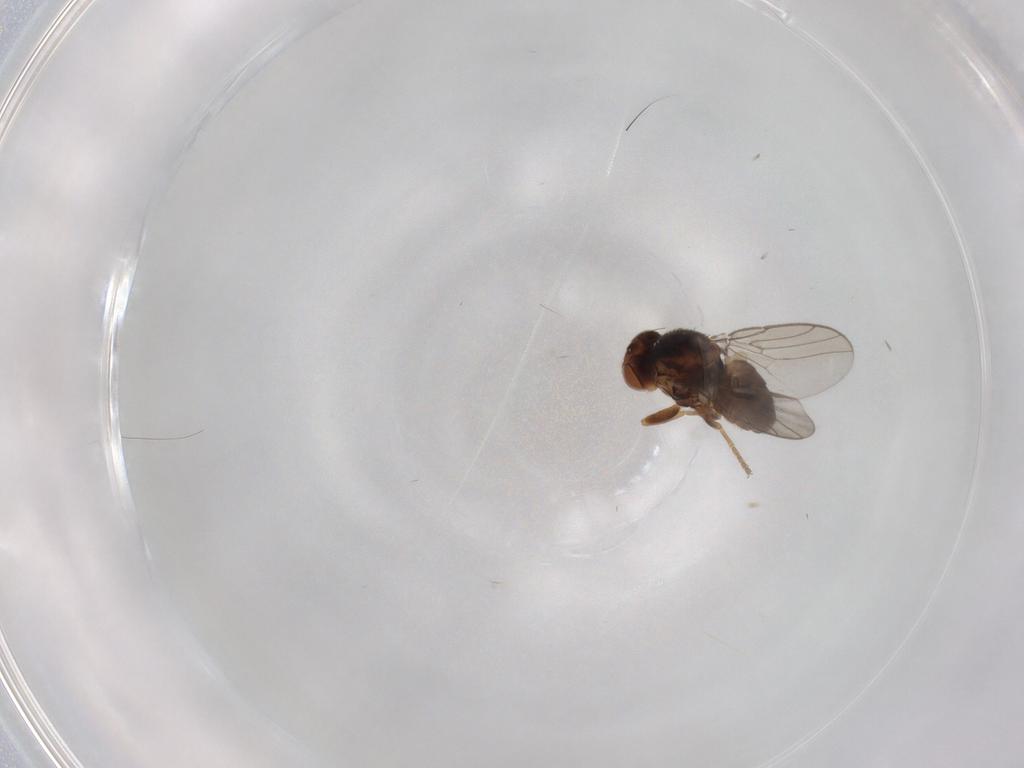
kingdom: Animalia
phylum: Arthropoda
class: Insecta
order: Diptera
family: Chloropidae
